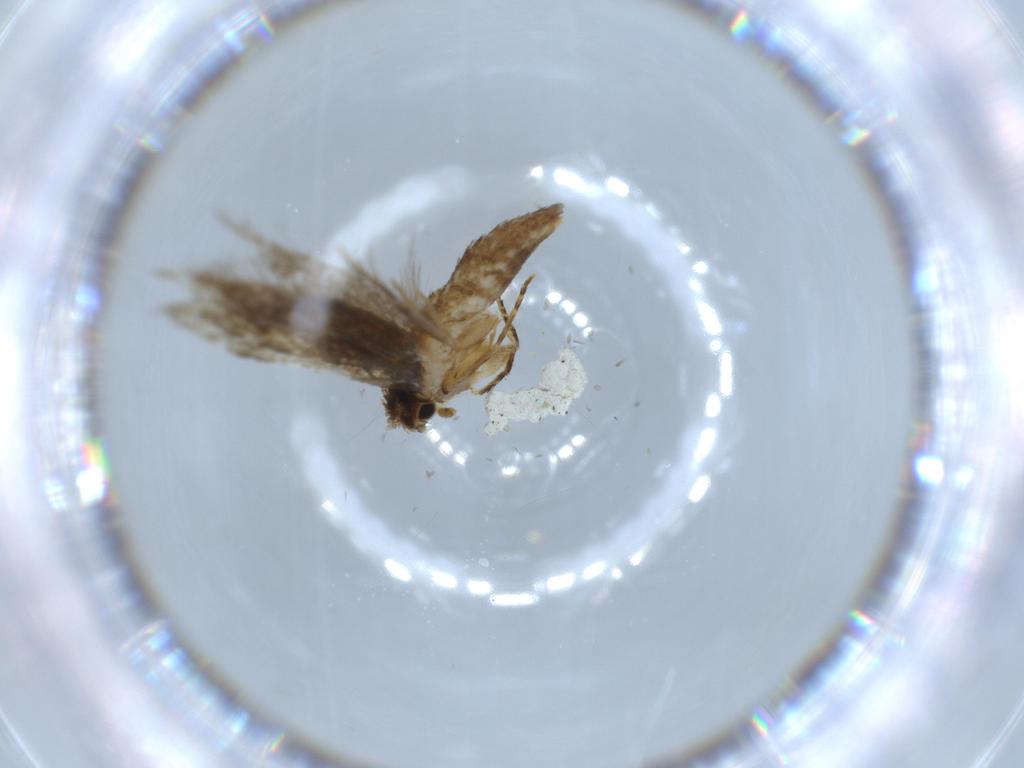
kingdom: Animalia
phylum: Arthropoda
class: Insecta
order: Lepidoptera
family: Tineidae
